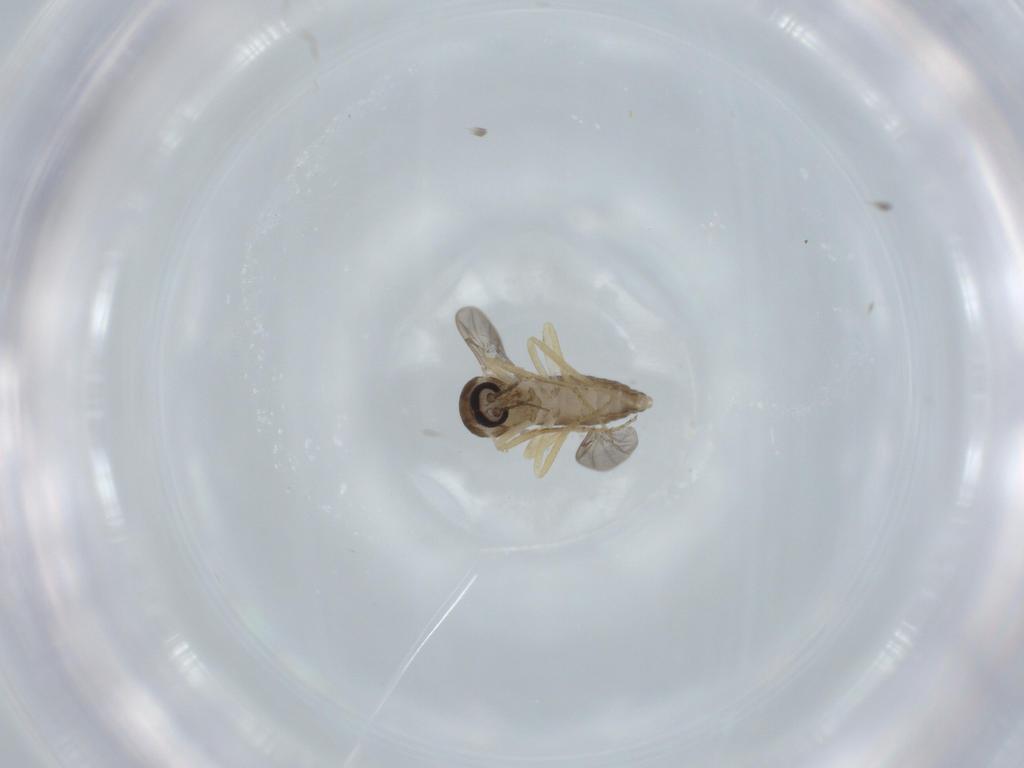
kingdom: Animalia
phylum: Arthropoda
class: Insecta
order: Diptera
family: Ceratopogonidae
